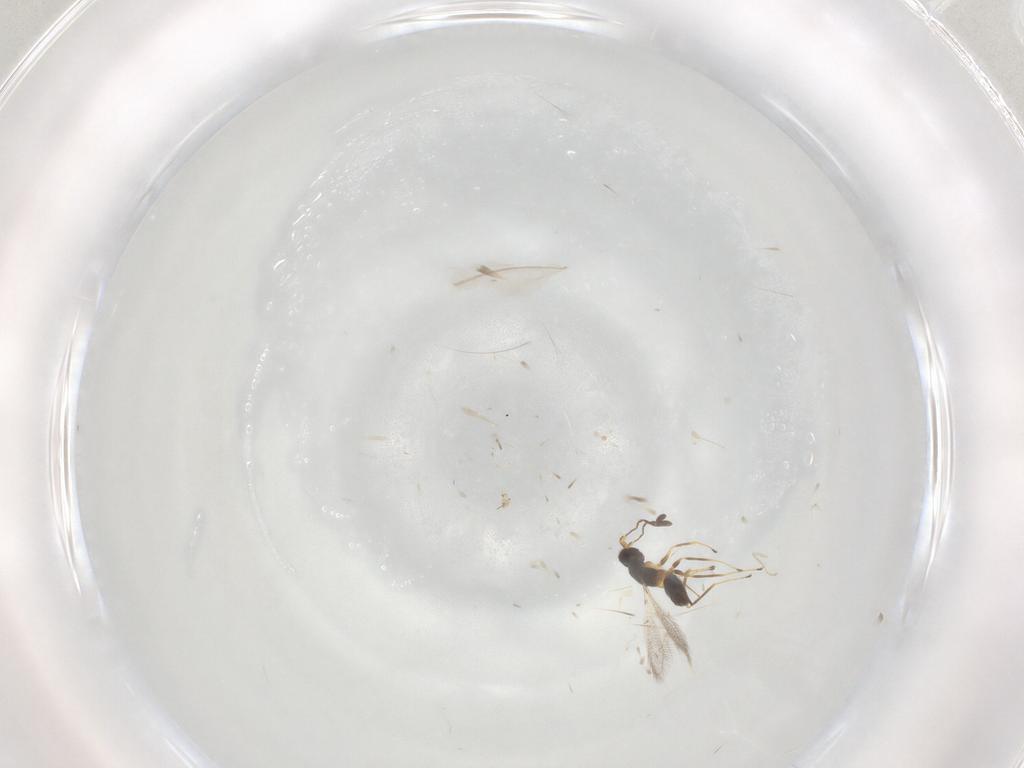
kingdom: Animalia
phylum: Arthropoda
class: Insecta
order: Hymenoptera
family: Mymaridae
